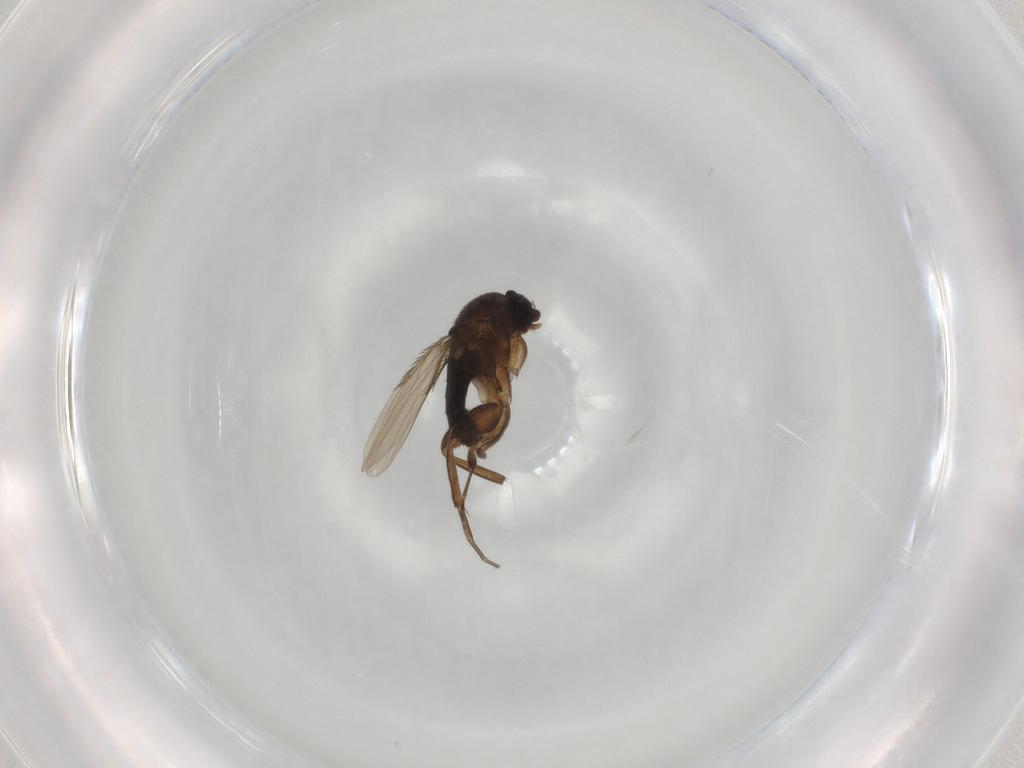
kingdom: Animalia
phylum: Arthropoda
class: Insecta
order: Diptera
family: Phoridae
